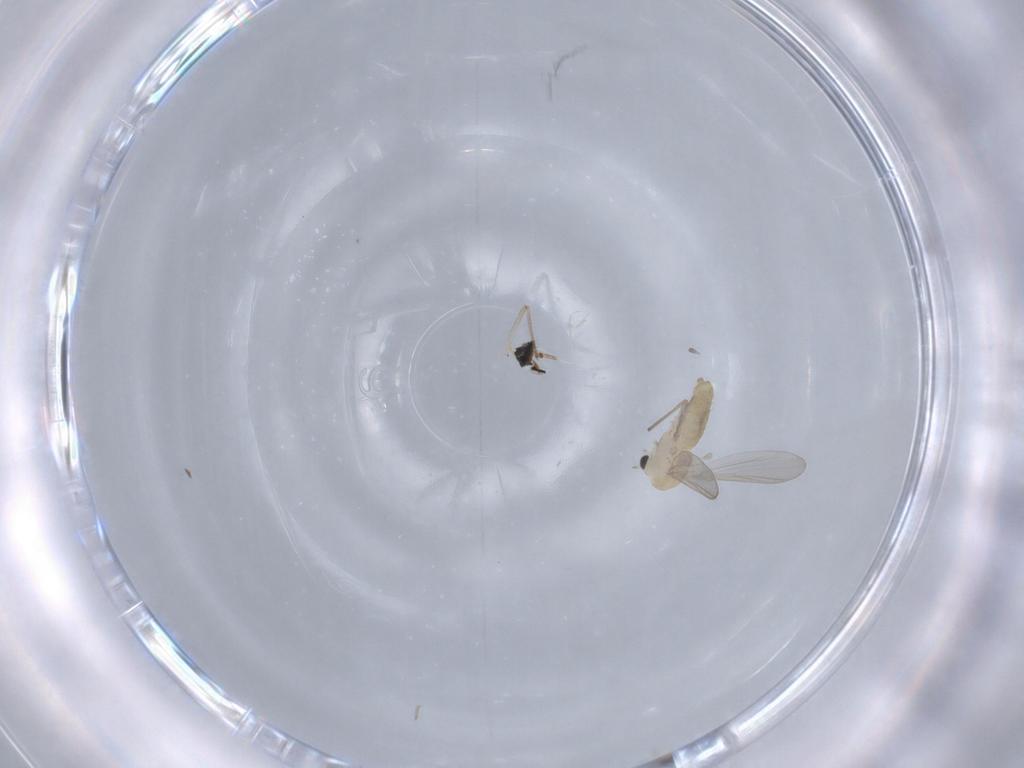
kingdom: Animalia
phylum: Arthropoda
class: Insecta
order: Diptera
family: Chironomidae
